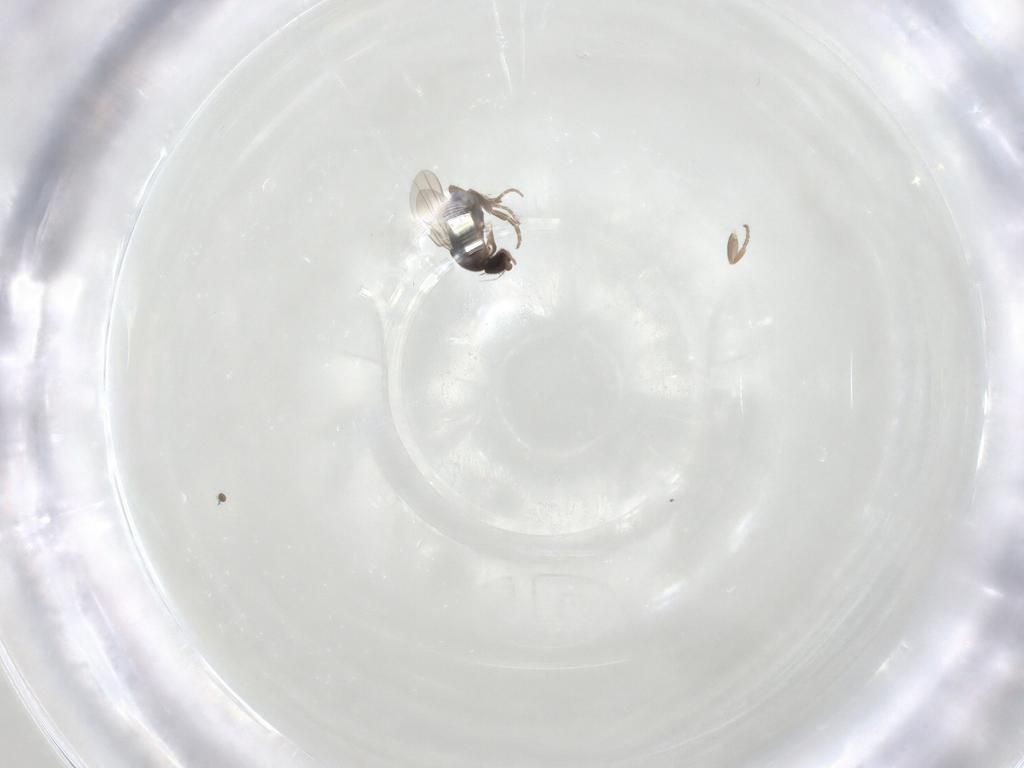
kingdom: Animalia
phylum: Arthropoda
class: Insecta
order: Diptera
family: Phoridae
